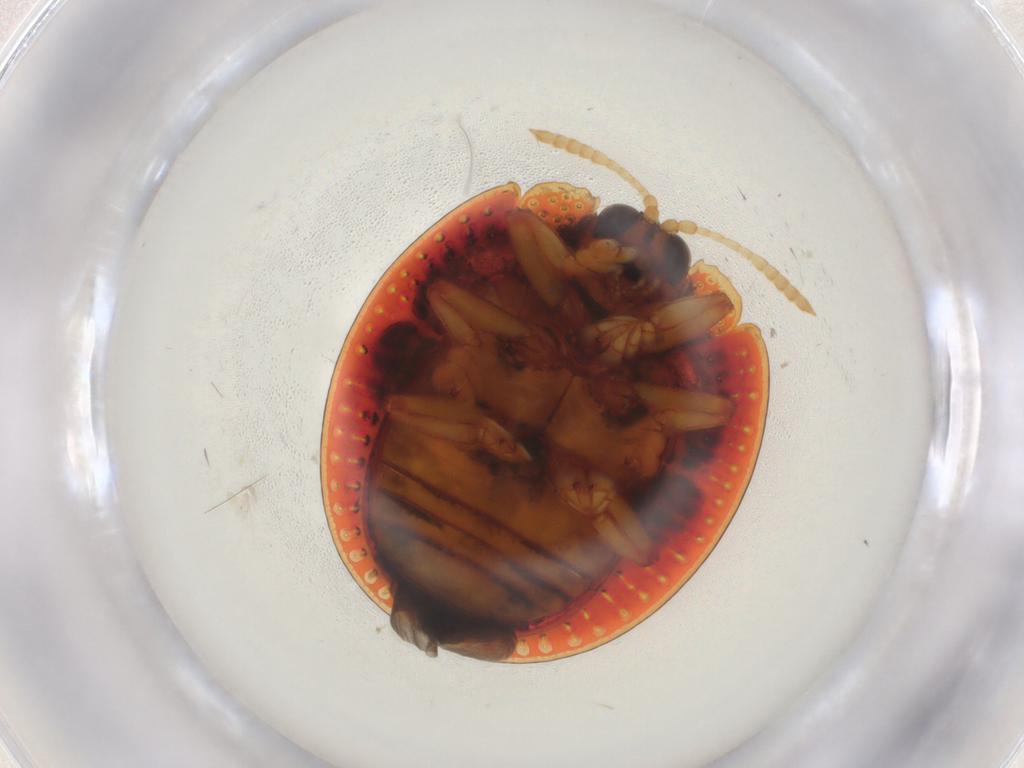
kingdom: Animalia
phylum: Arthropoda
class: Insecta
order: Coleoptera
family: Chrysomelidae
